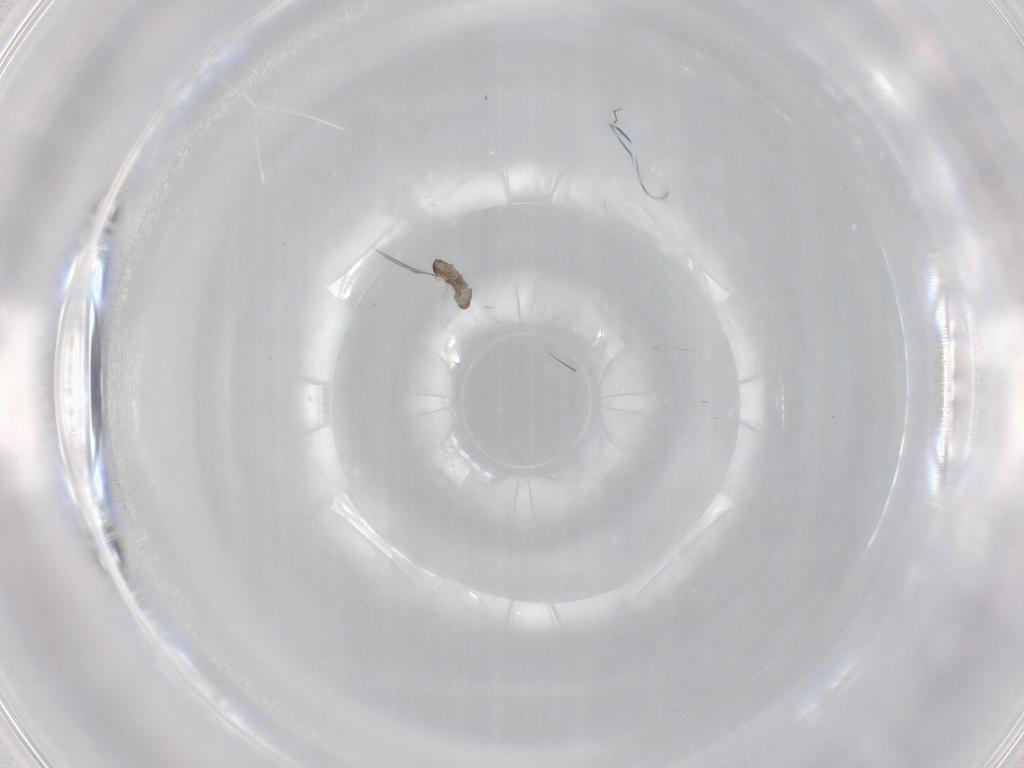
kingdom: Animalia
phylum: Arthropoda
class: Insecta
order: Diptera
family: Cecidomyiidae
